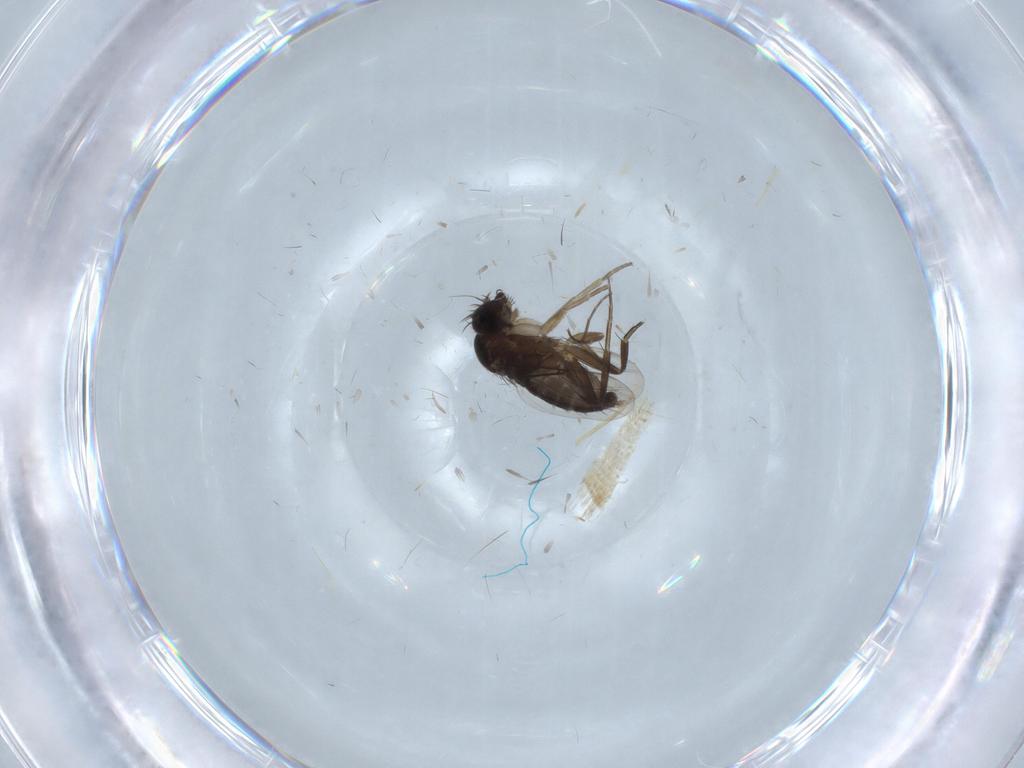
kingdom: Animalia
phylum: Arthropoda
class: Insecta
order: Diptera
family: Phoridae
